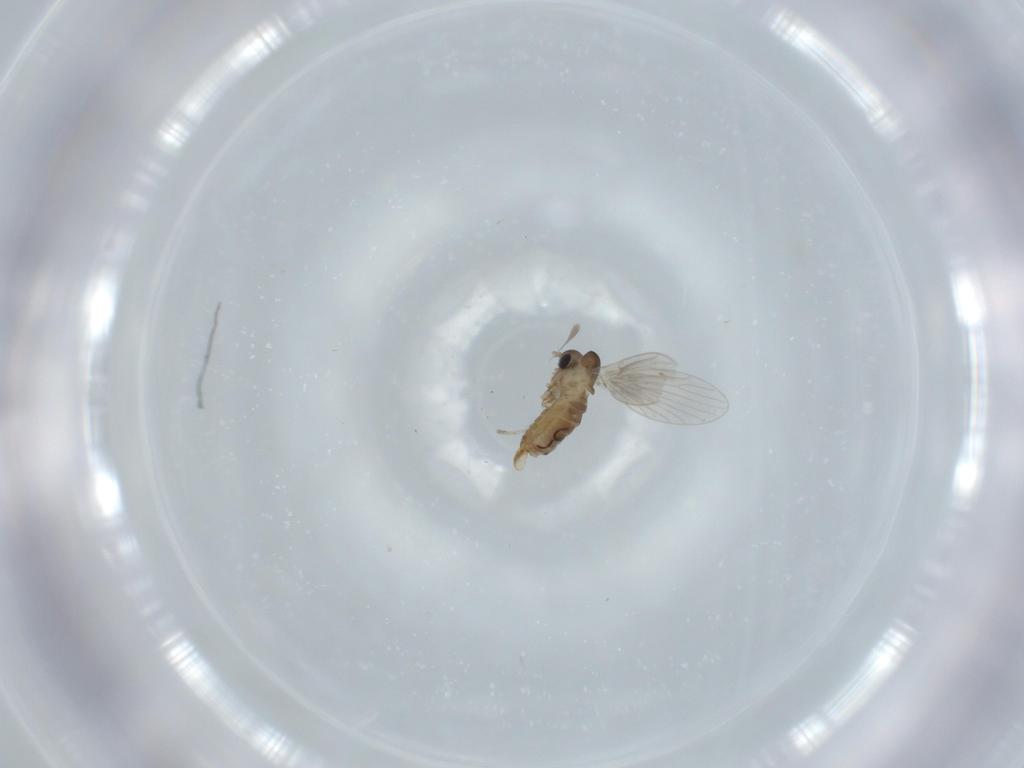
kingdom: Animalia
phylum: Arthropoda
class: Insecta
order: Diptera
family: Psychodidae
